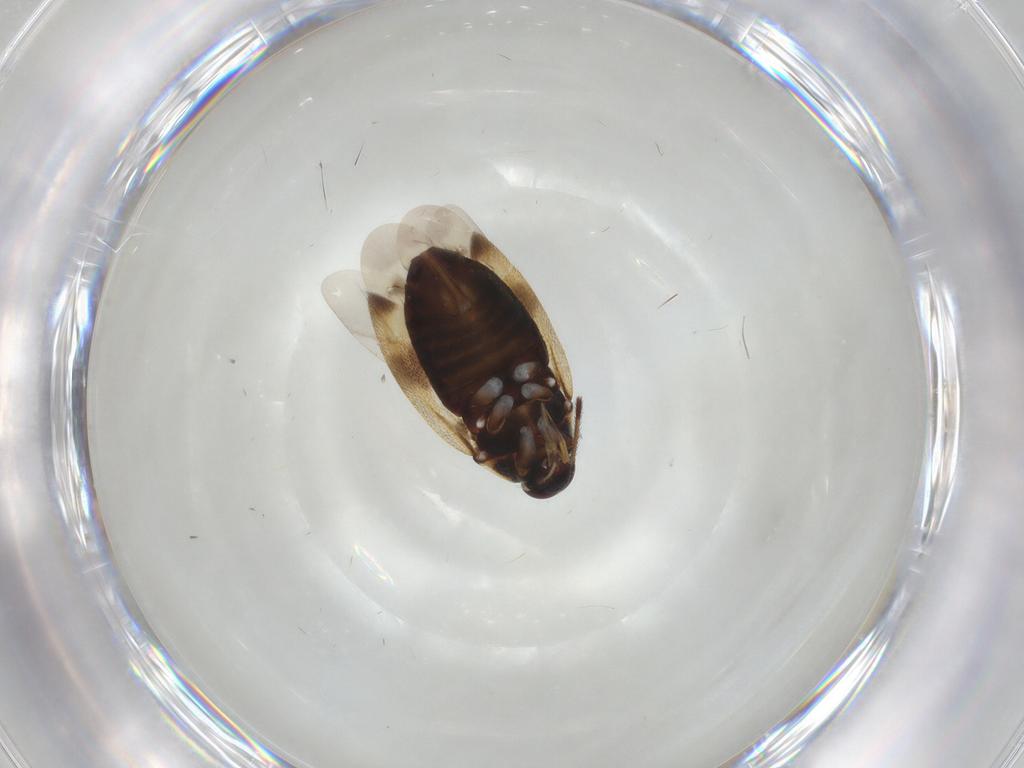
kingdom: Animalia
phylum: Arthropoda
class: Insecta
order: Hemiptera
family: Miridae
